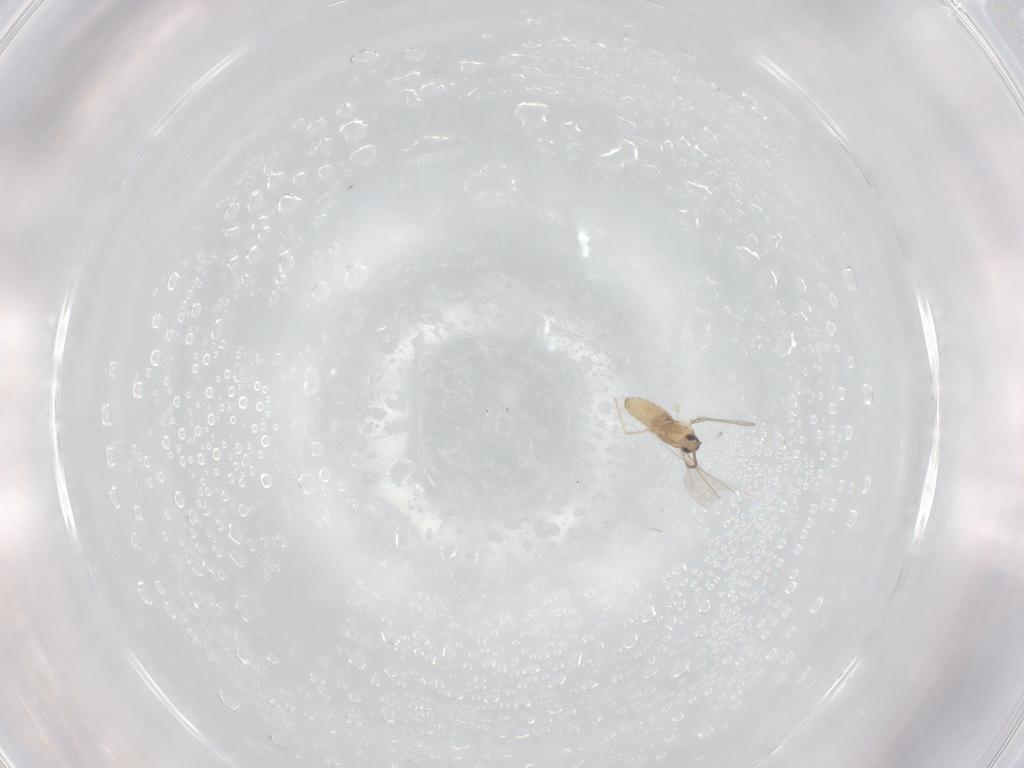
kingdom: Animalia
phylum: Arthropoda
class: Insecta
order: Diptera
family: Cecidomyiidae
